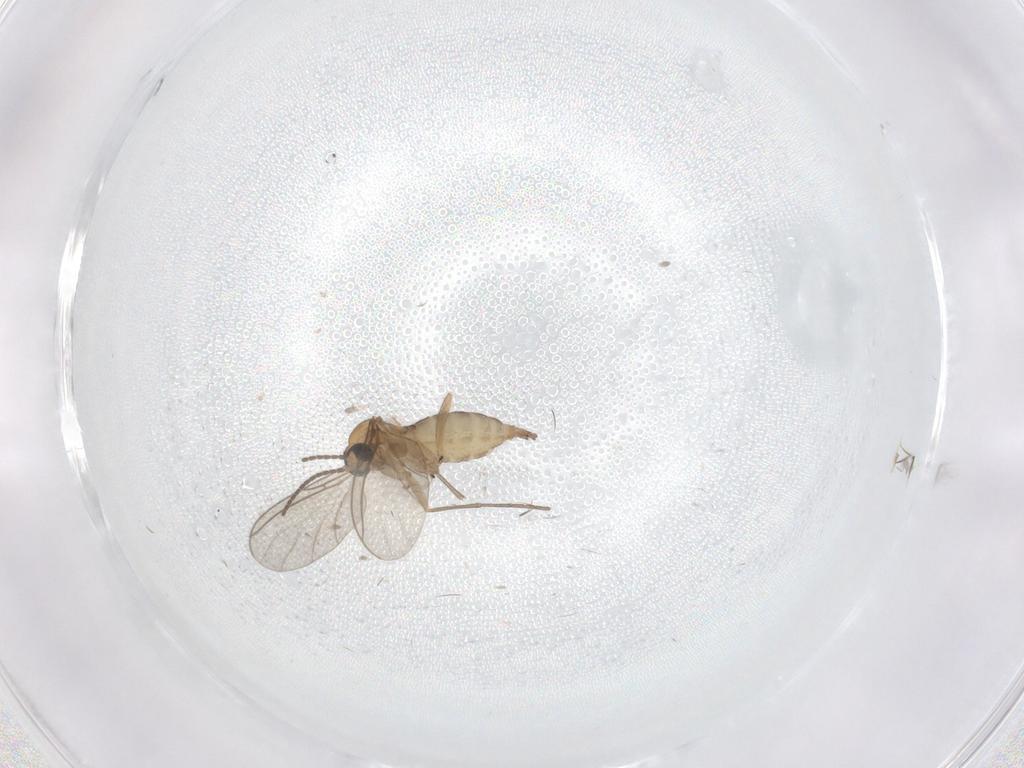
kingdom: Animalia
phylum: Arthropoda
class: Insecta
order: Diptera
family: Sciaridae
